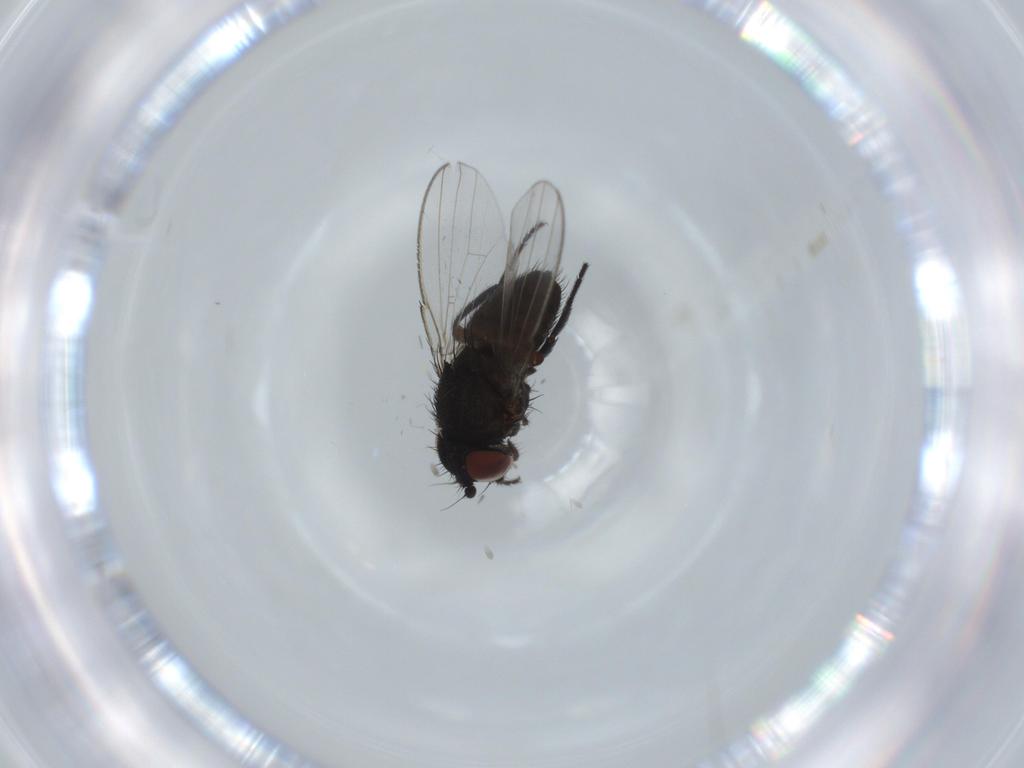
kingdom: Animalia
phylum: Arthropoda
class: Insecta
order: Diptera
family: Milichiidae
